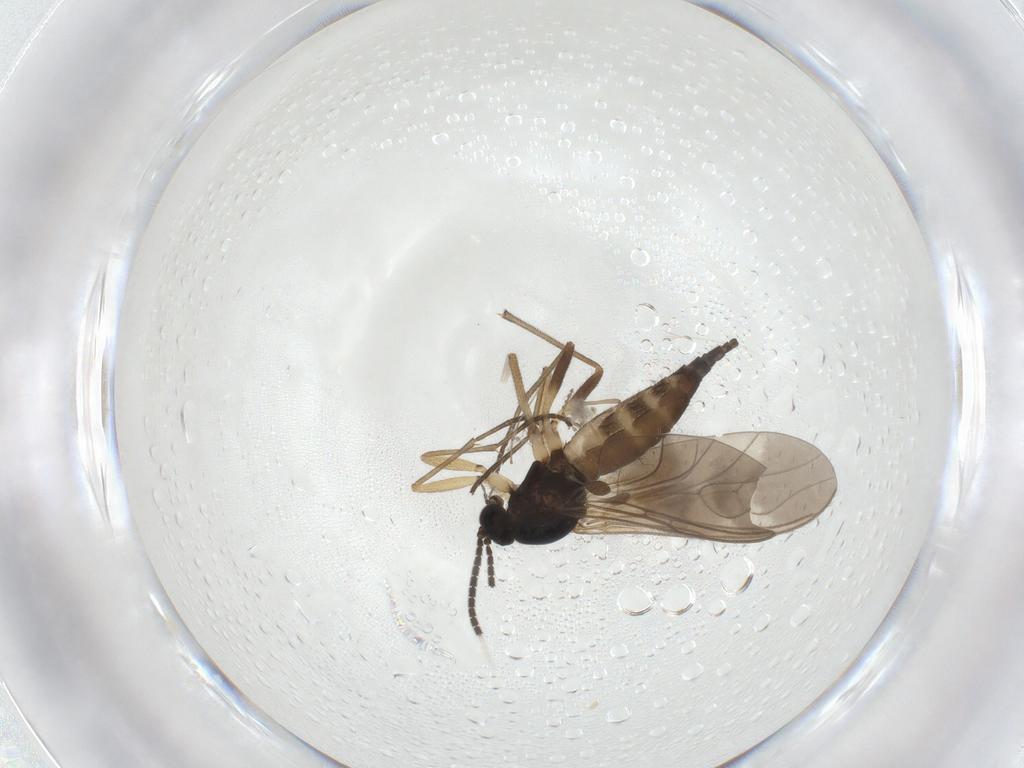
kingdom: Animalia
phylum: Arthropoda
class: Insecta
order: Diptera
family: Sciaridae
